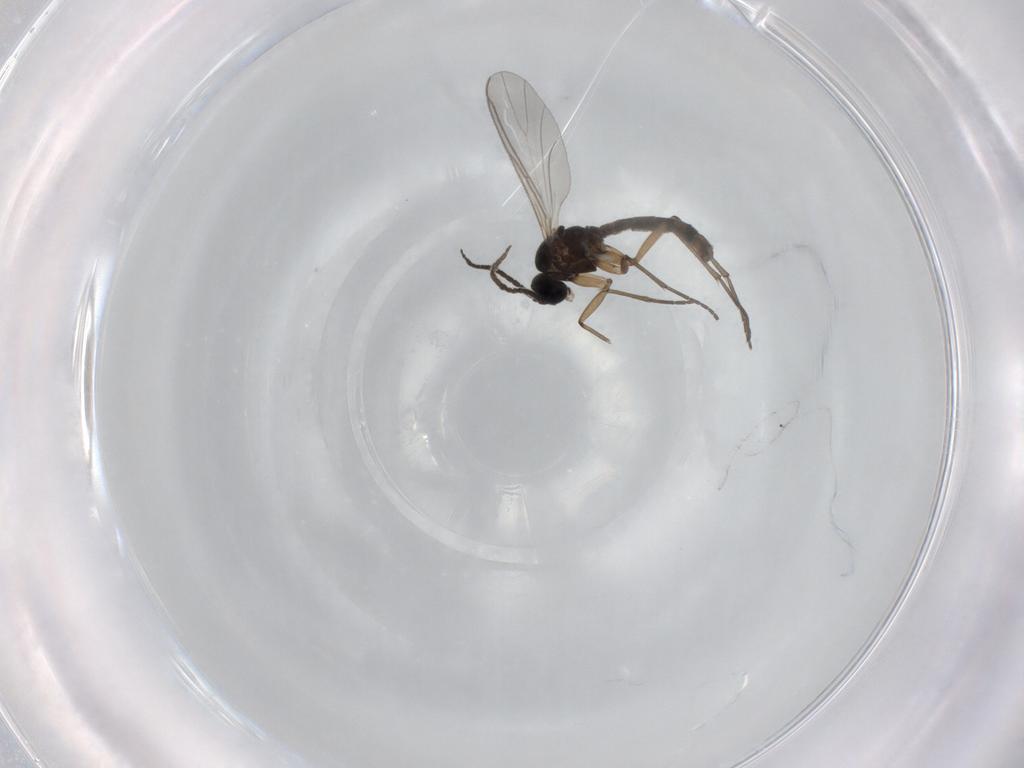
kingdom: Animalia
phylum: Arthropoda
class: Insecta
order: Diptera
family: Sciaridae
